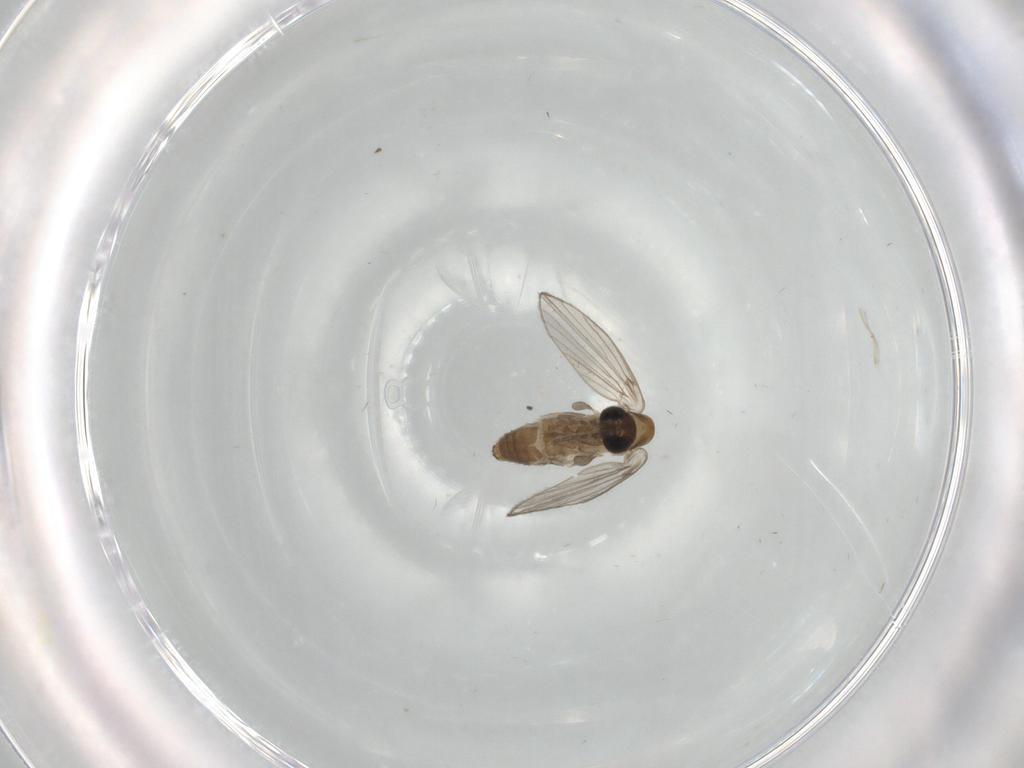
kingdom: Animalia
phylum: Arthropoda
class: Insecta
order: Diptera
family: Psychodidae
